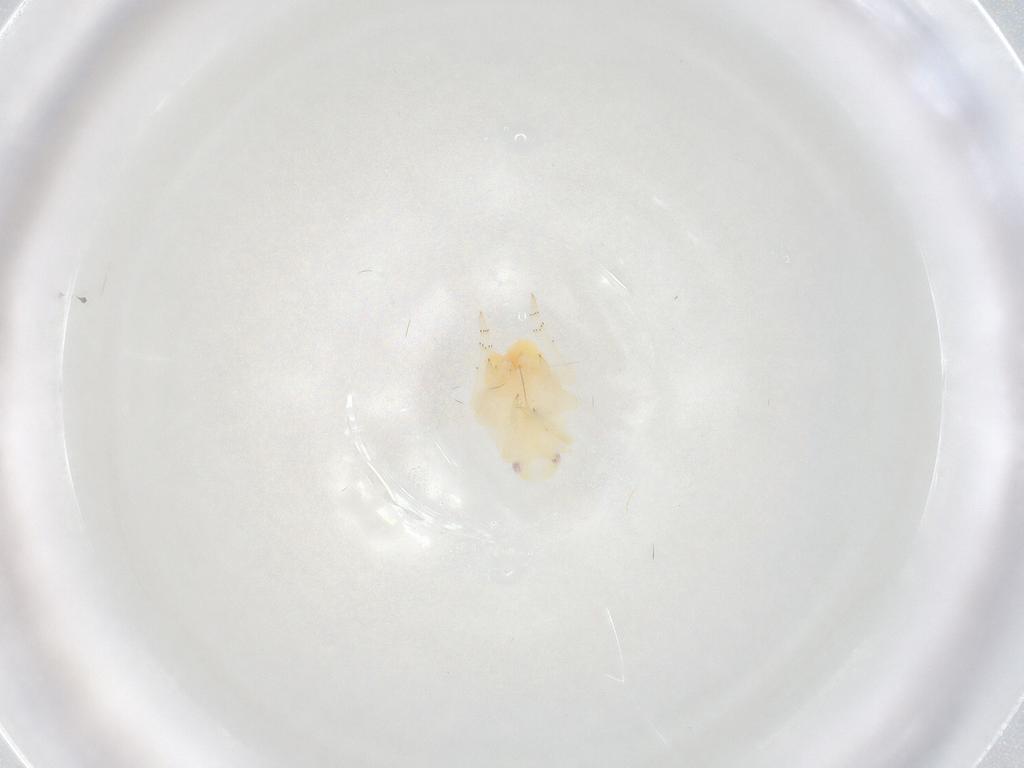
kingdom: Animalia
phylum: Arthropoda
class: Insecta
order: Hemiptera
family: Aleyrodidae
